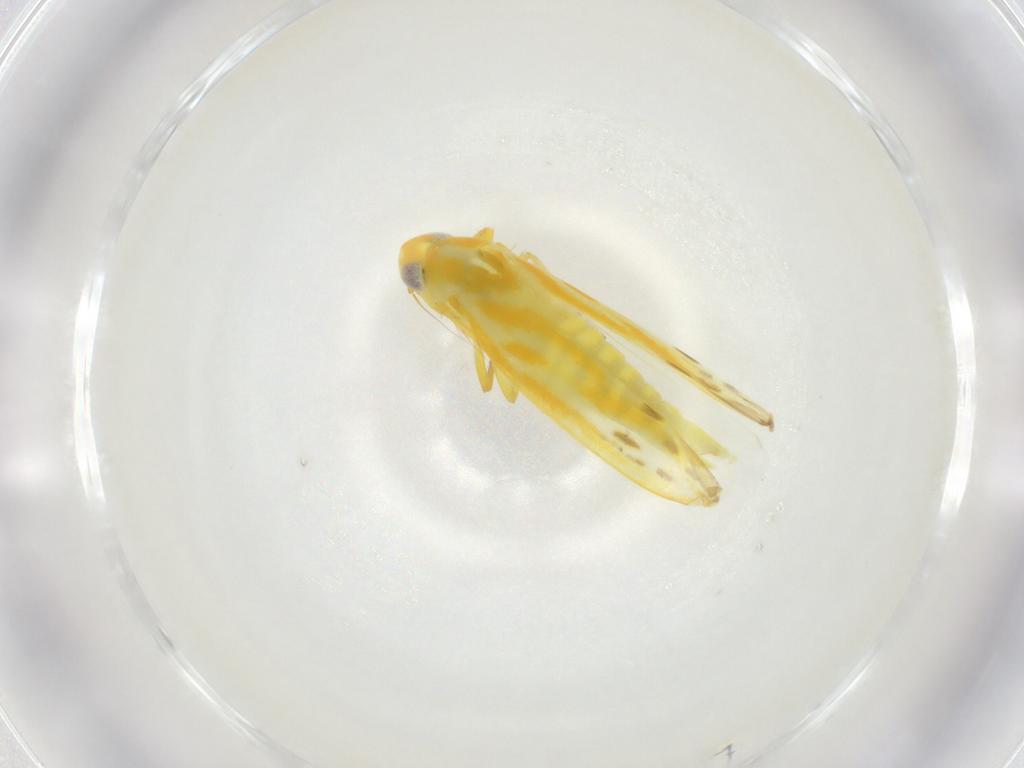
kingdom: Animalia
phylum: Arthropoda
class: Insecta
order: Hemiptera
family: Cicadellidae
